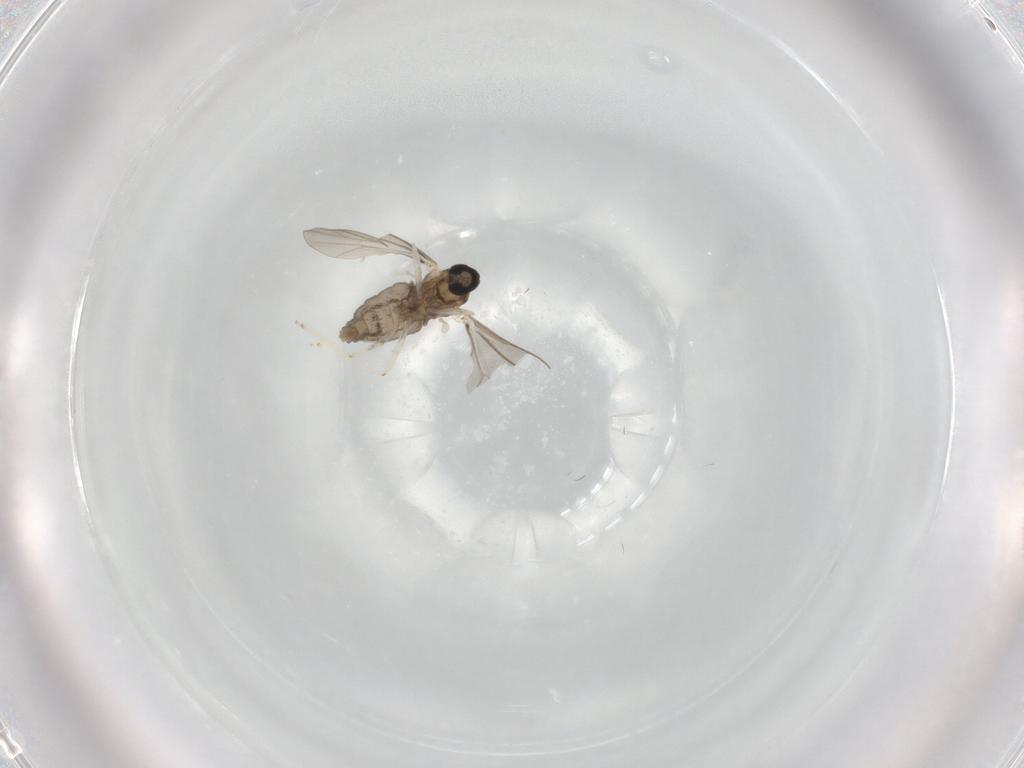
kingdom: Animalia
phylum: Arthropoda
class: Insecta
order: Diptera
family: Cecidomyiidae
